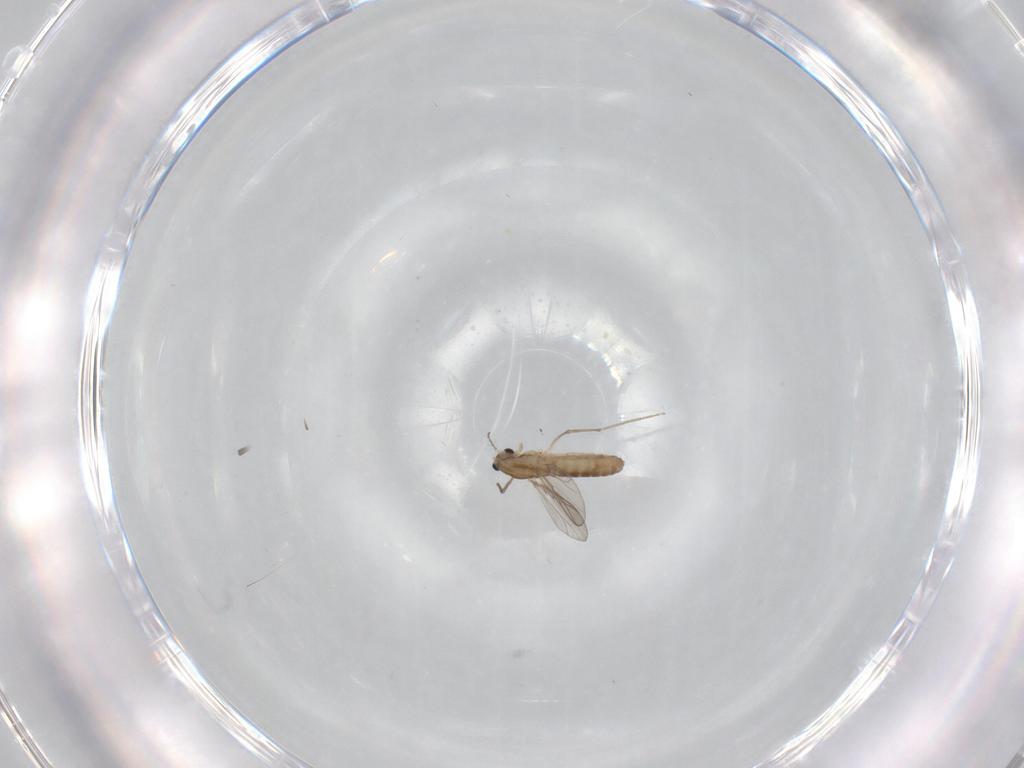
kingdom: Animalia
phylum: Arthropoda
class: Insecta
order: Diptera
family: Chironomidae
